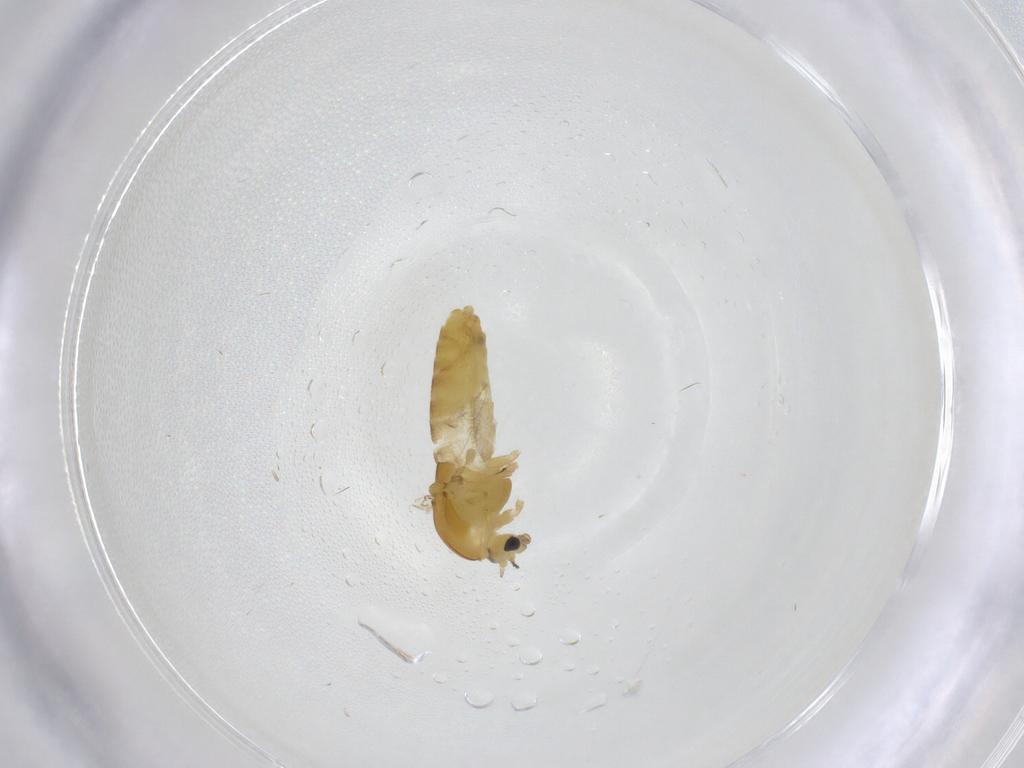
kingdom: Animalia
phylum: Arthropoda
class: Insecta
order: Diptera
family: Chironomidae
